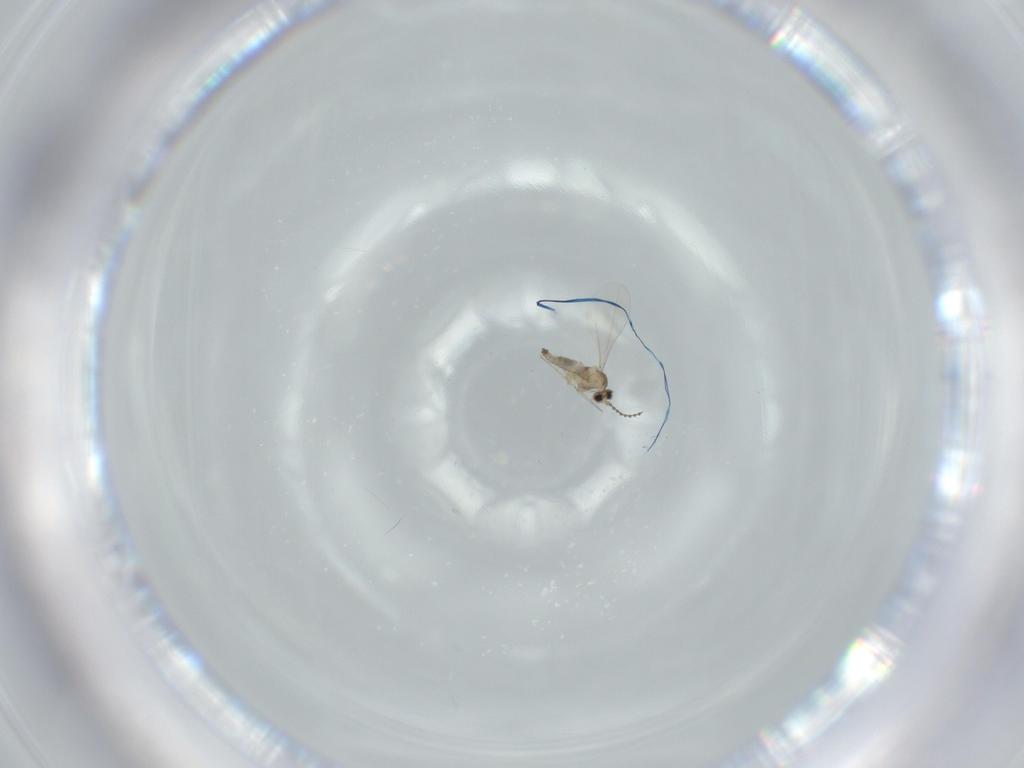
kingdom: Animalia
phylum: Arthropoda
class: Insecta
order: Diptera
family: Cecidomyiidae
